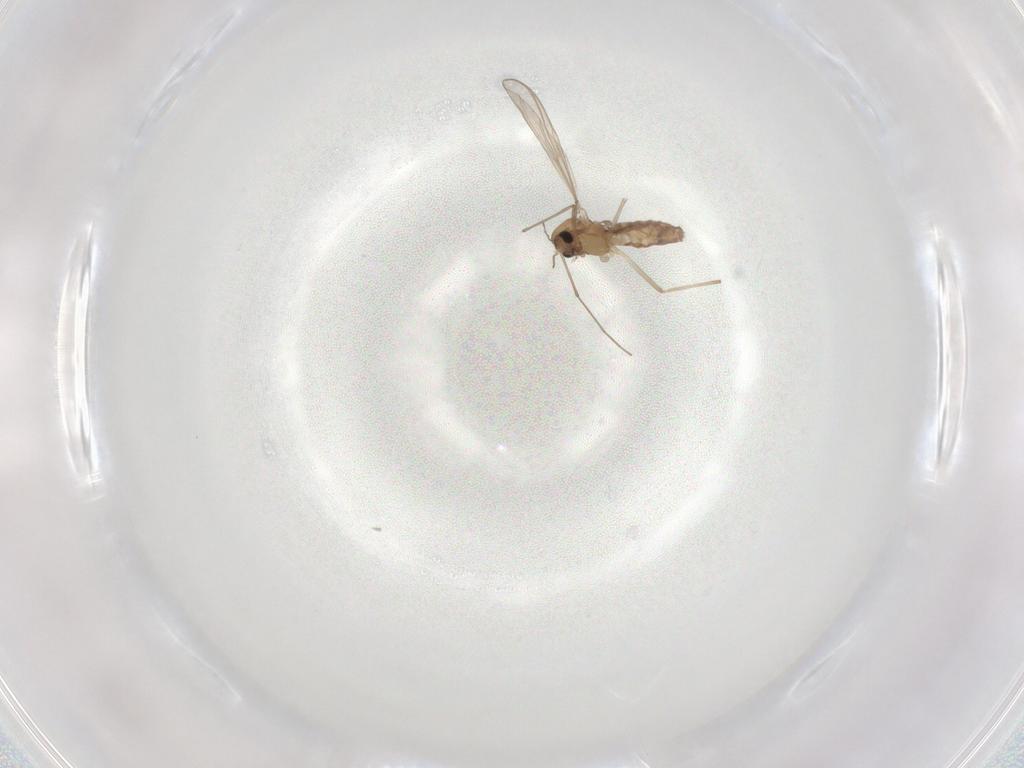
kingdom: Animalia
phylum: Arthropoda
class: Insecta
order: Diptera
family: Chironomidae
